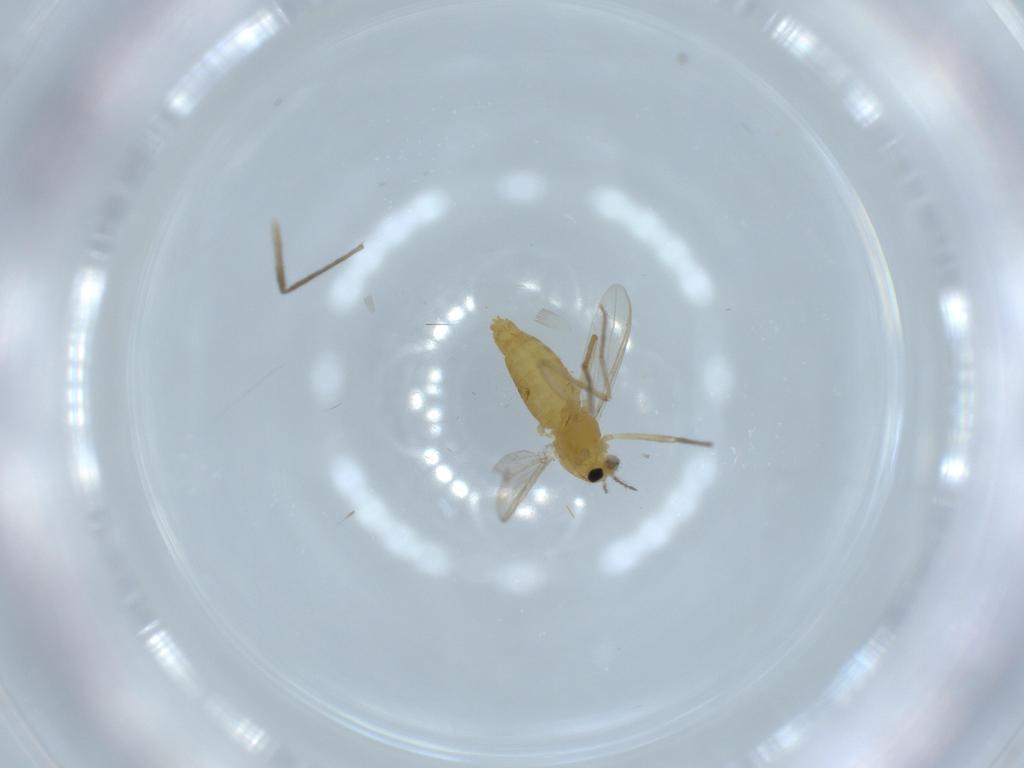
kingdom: Animalia
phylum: Arthropoda
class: Insecta
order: Diptera
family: Chironomidae
